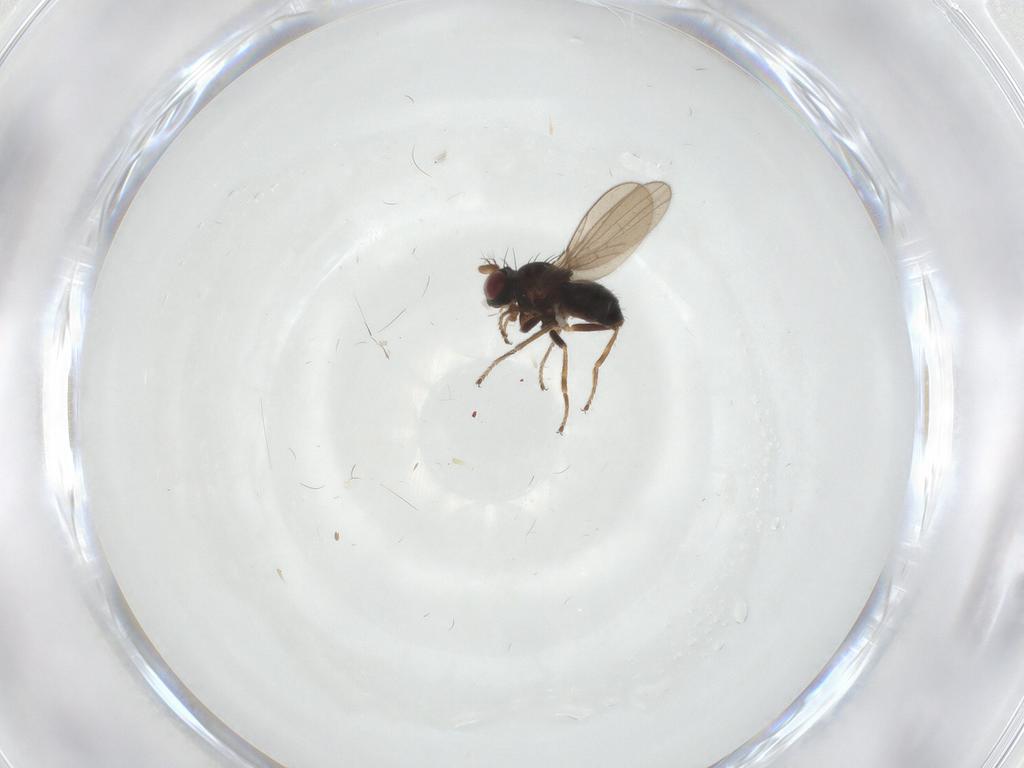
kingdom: Animalia
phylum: Arthropoda
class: Insecta
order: Diptera
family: Ephydridae
